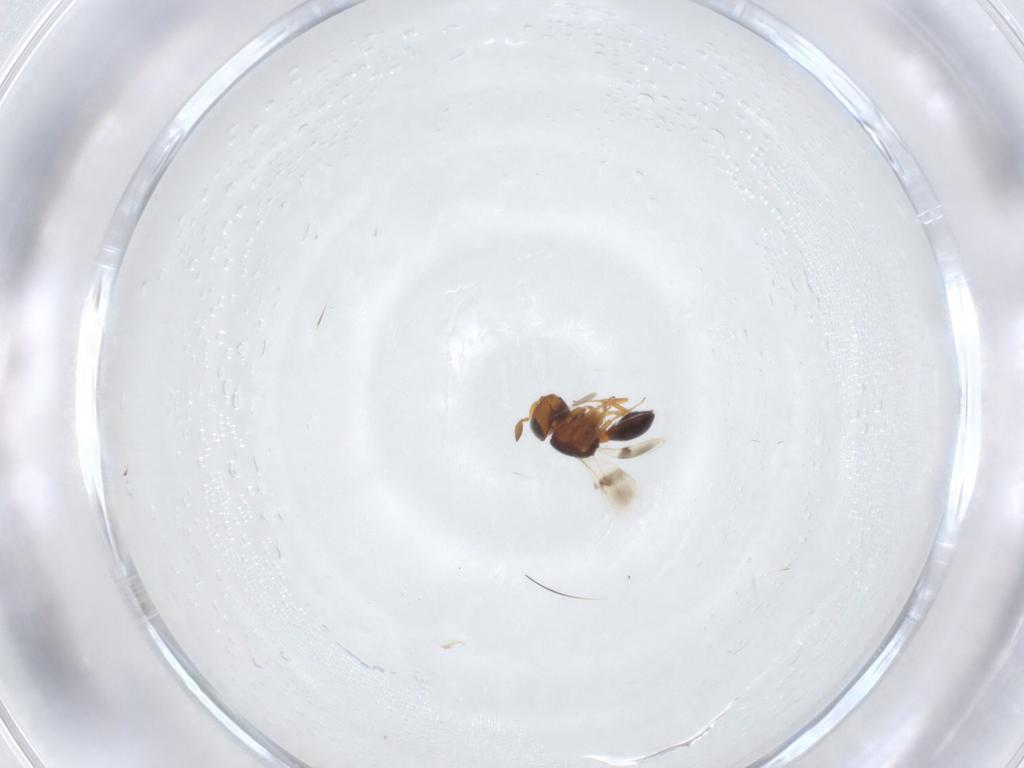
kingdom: Animalia
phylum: Arthropoda
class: Insecta
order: Hymenoptera
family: Scelionidae
